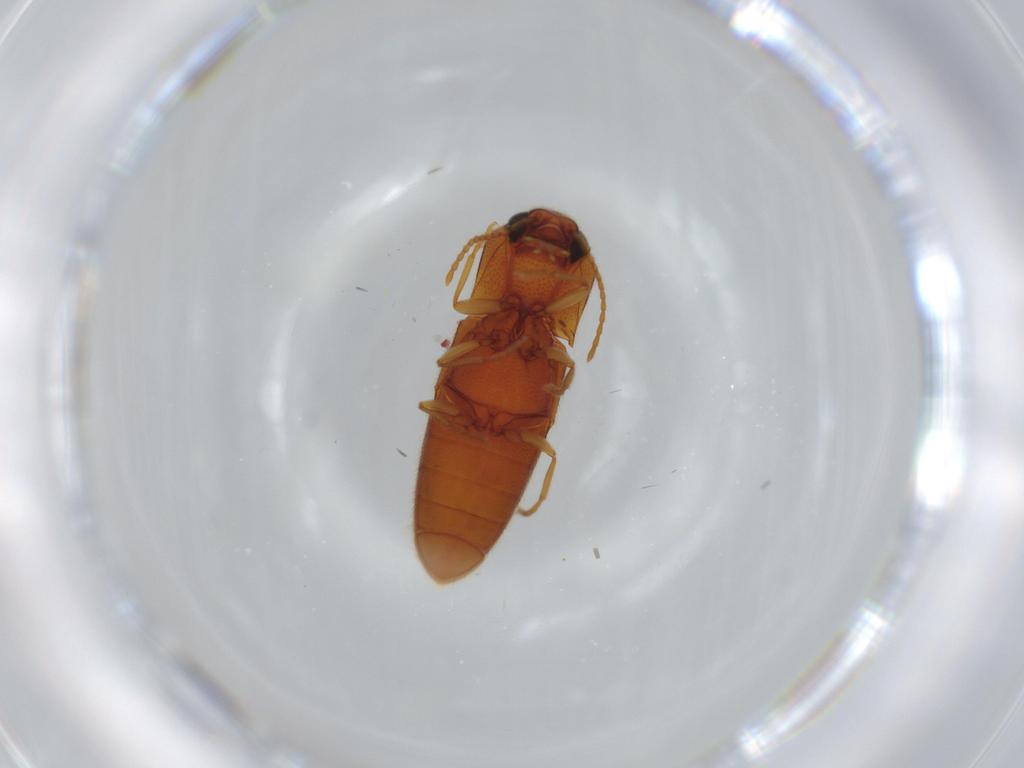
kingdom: Animalia
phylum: Arthropoda
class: Insecta
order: Coleoptera
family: Elateridae
